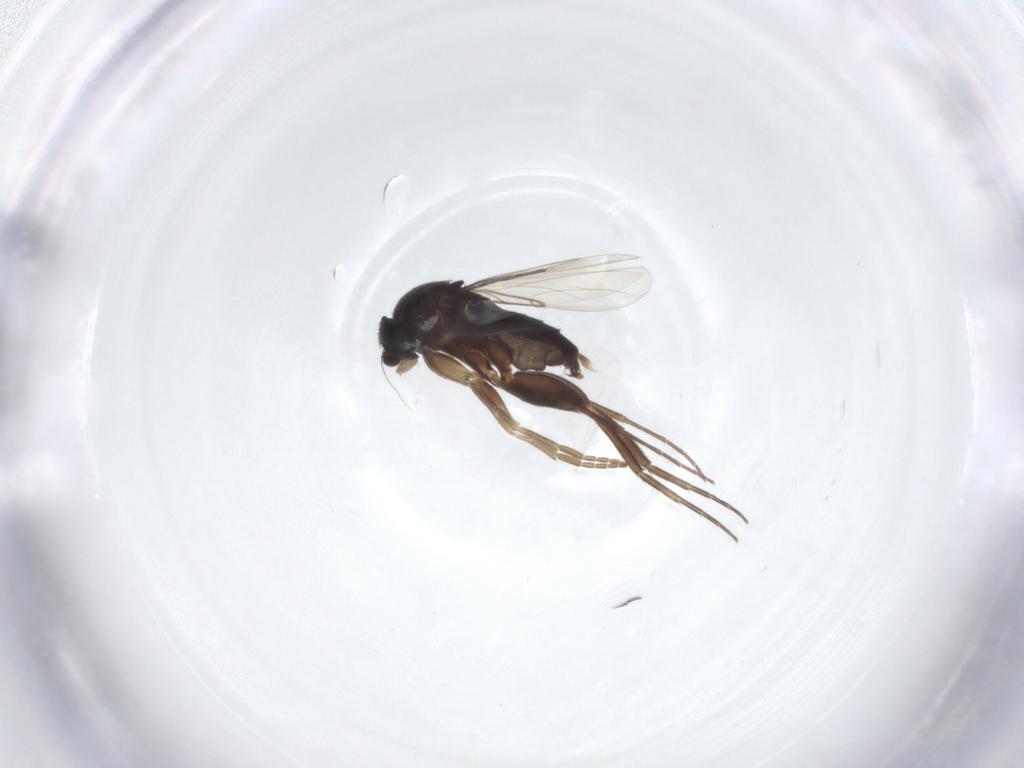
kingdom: Animalia
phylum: Arthropoda
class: Insecta
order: Diptera
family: Phoridae
